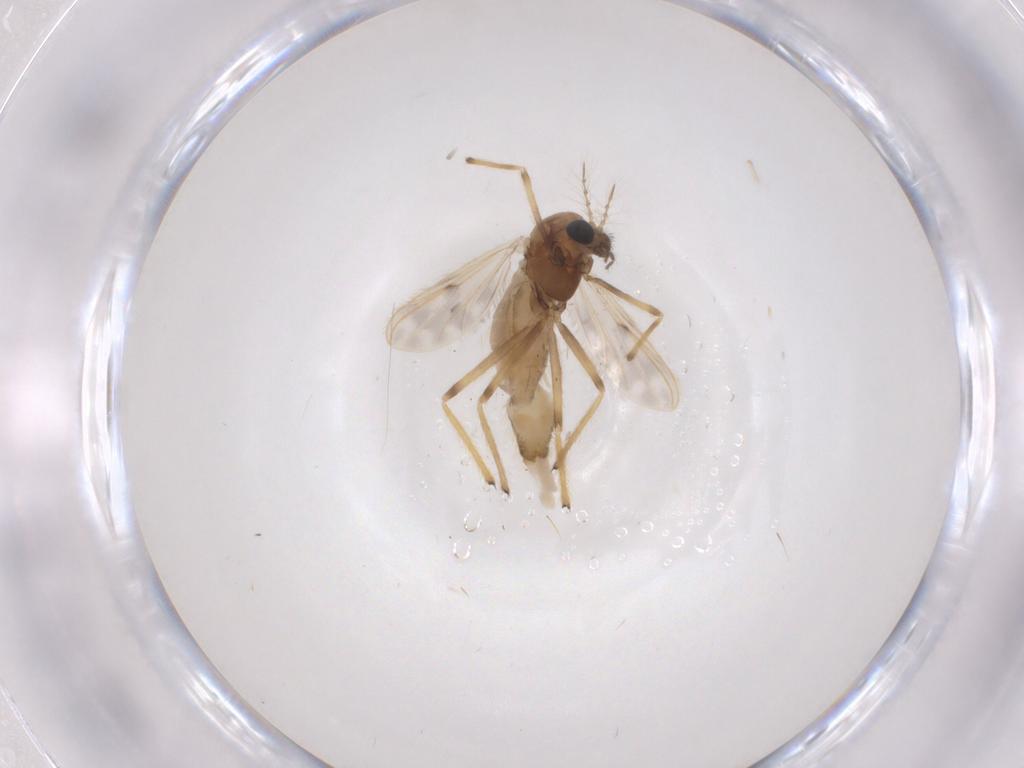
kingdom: Animalia
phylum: Arthropoda
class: Insecta
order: Diptera
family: Chironomidae
